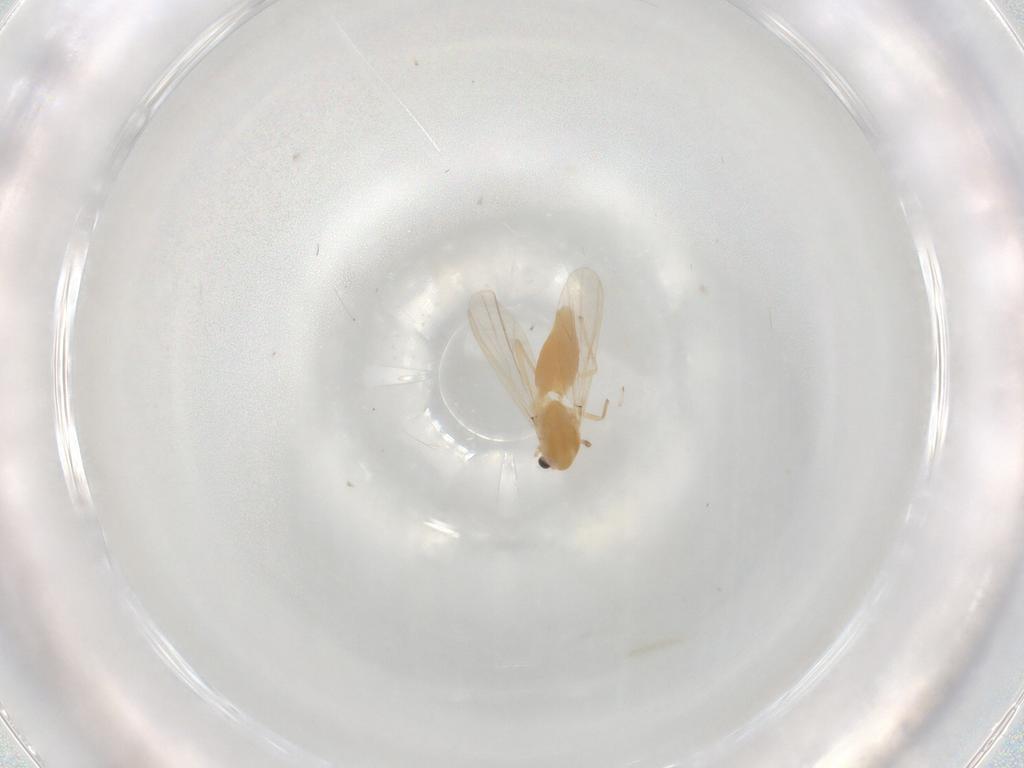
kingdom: Animalia
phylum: Arthropoda
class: Insecta
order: Diptera
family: Chironomidae
